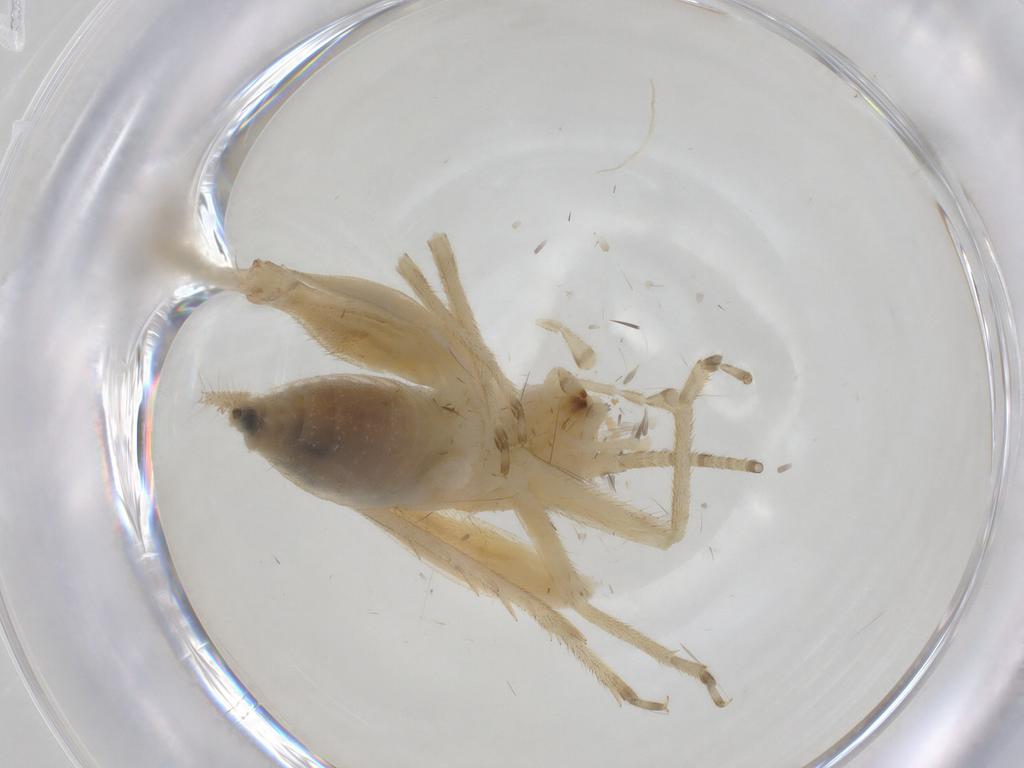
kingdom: Animalia
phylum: Arthropoda
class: Insecta
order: Orthoptera
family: Trigonidiidae
